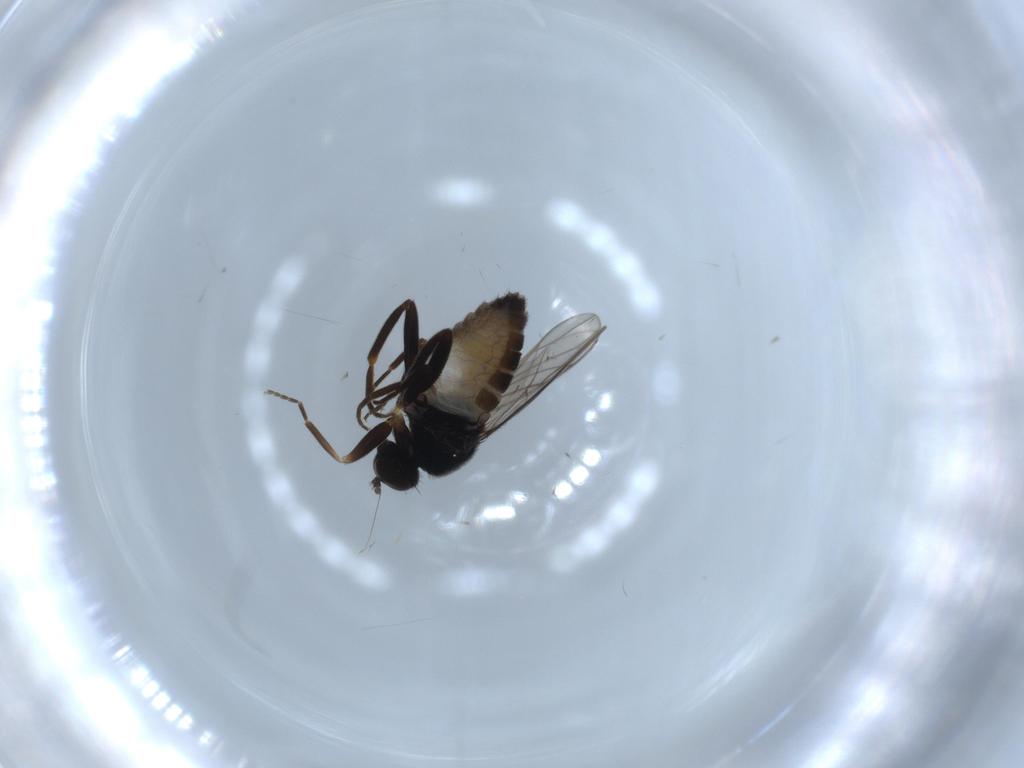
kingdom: Animalia
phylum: Arthropoda
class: Insecta
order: Diptera
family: Hybotidae
